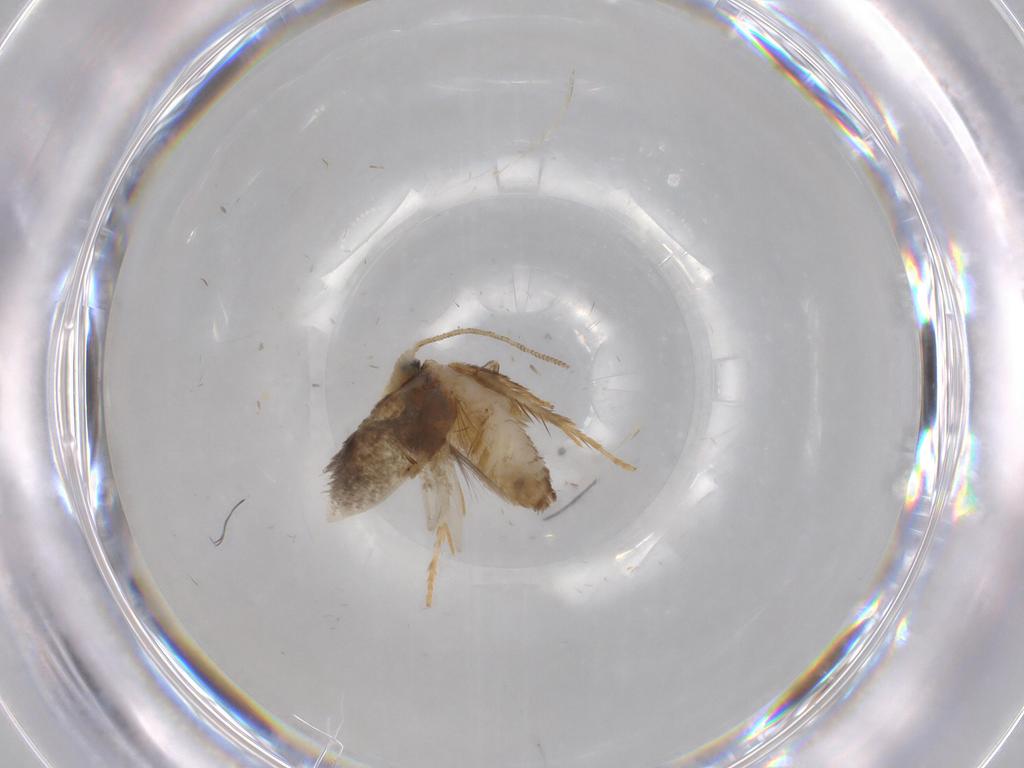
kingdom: Animalia
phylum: Arthropoda
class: Insecta
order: Lepidoptera
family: Nepticulidae
